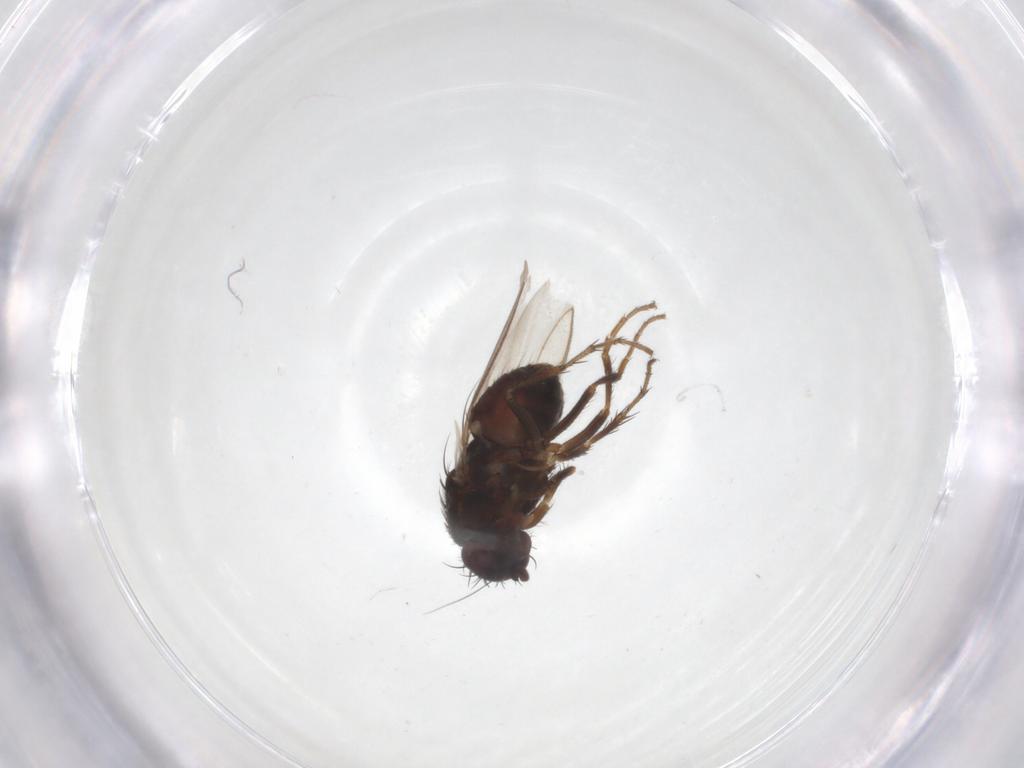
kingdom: Animalia
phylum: Arthropoda
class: Insecta
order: Diptera
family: Sphaeroceridae
